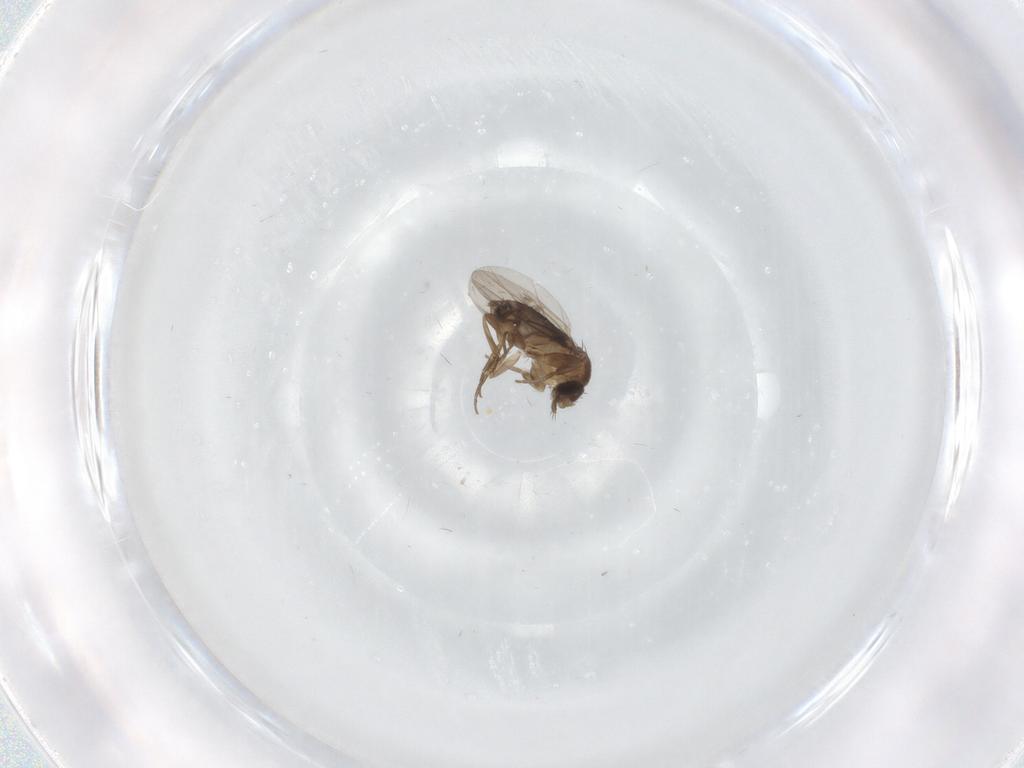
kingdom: Animalia
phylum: Arthropoda
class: Insecta
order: Diptera
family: Phoridae
